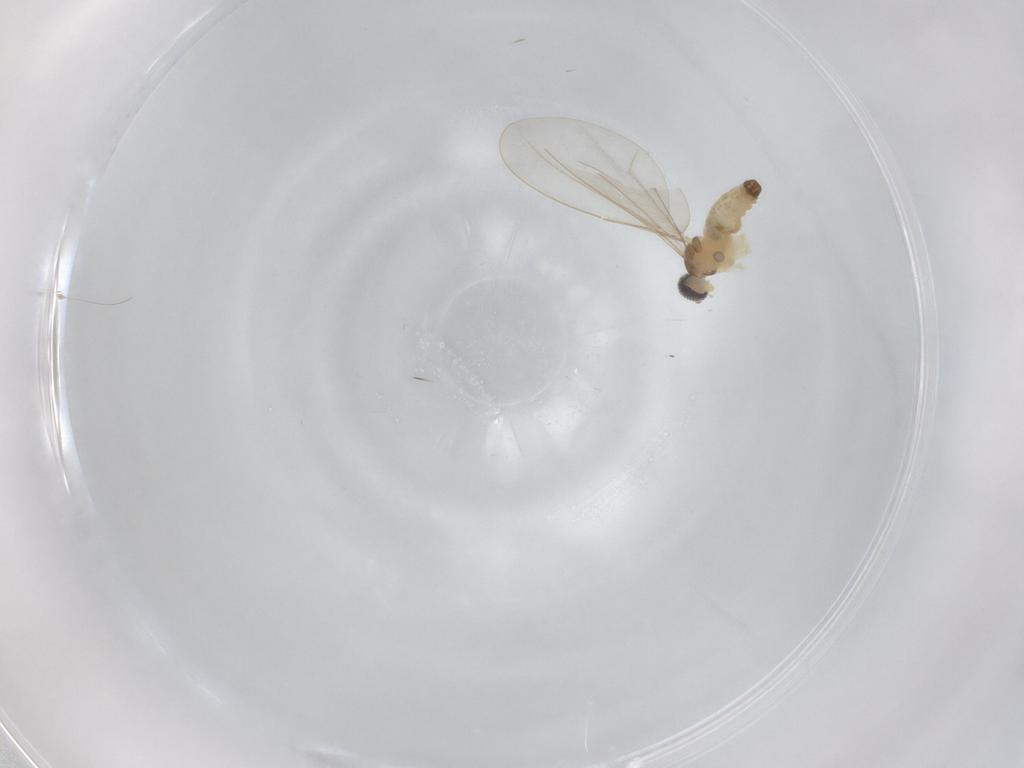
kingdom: Animalia
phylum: Arthropoda
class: Insecta
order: Diptera
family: Cecidomyiidae
